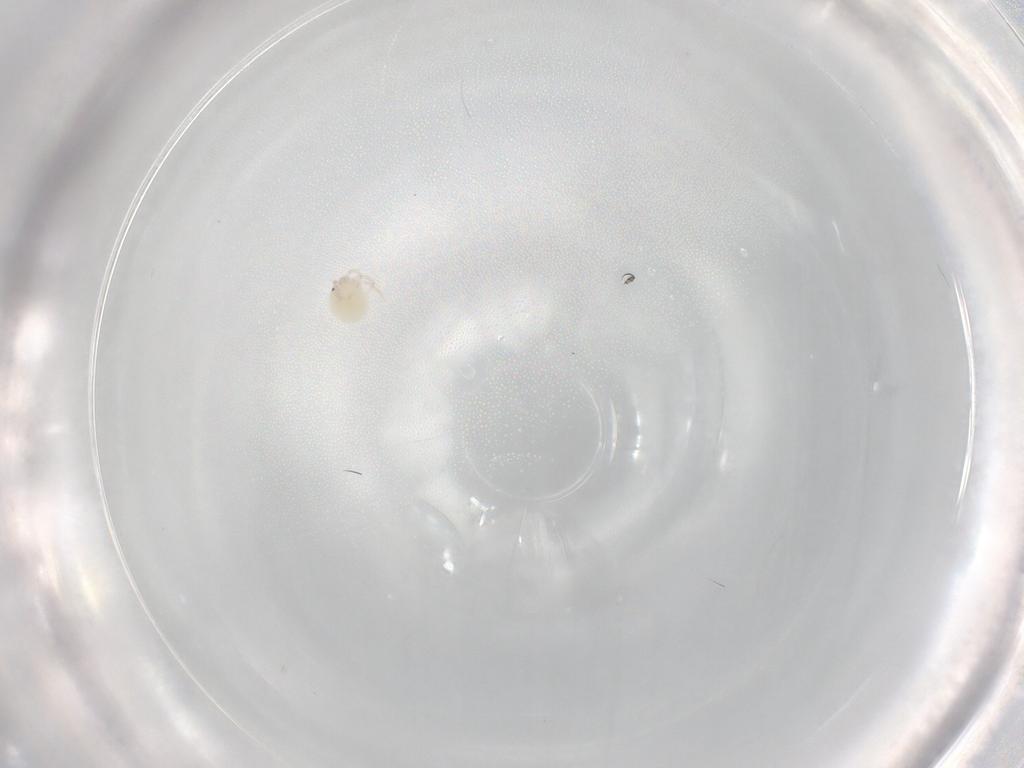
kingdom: Animalia
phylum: Arthropoda
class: Arachnida
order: Trombidiformes
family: Lebertiidae
